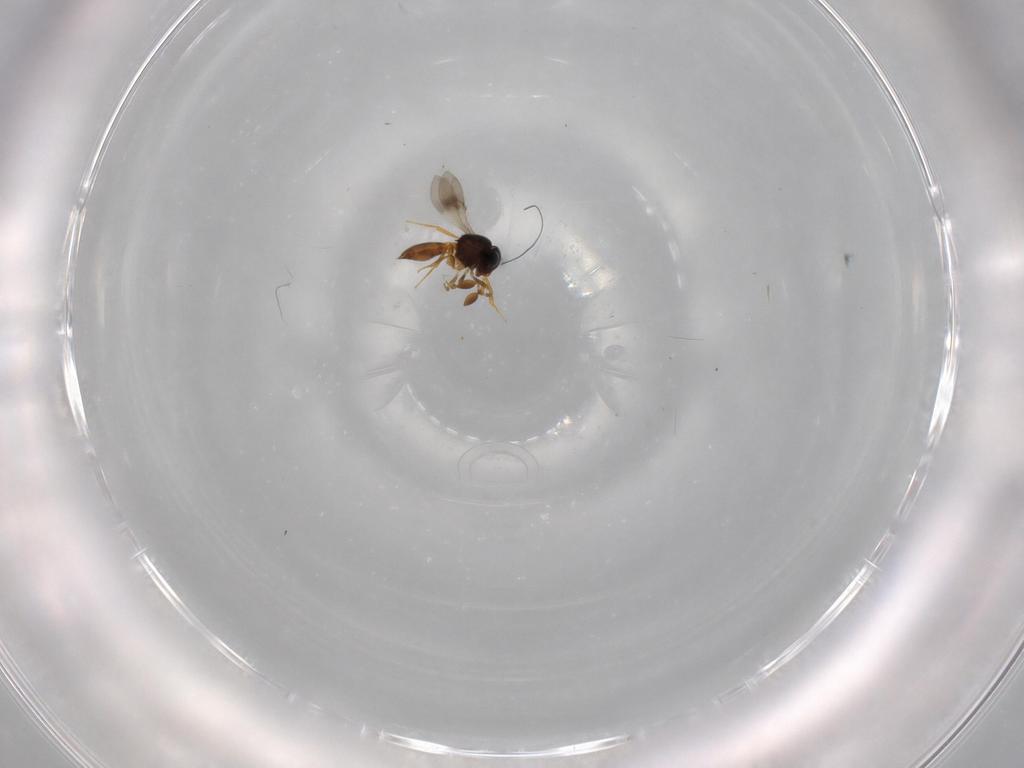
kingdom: Animalia
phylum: Arthropoda
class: Insecta
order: Hymenoptera
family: Scelionidae
